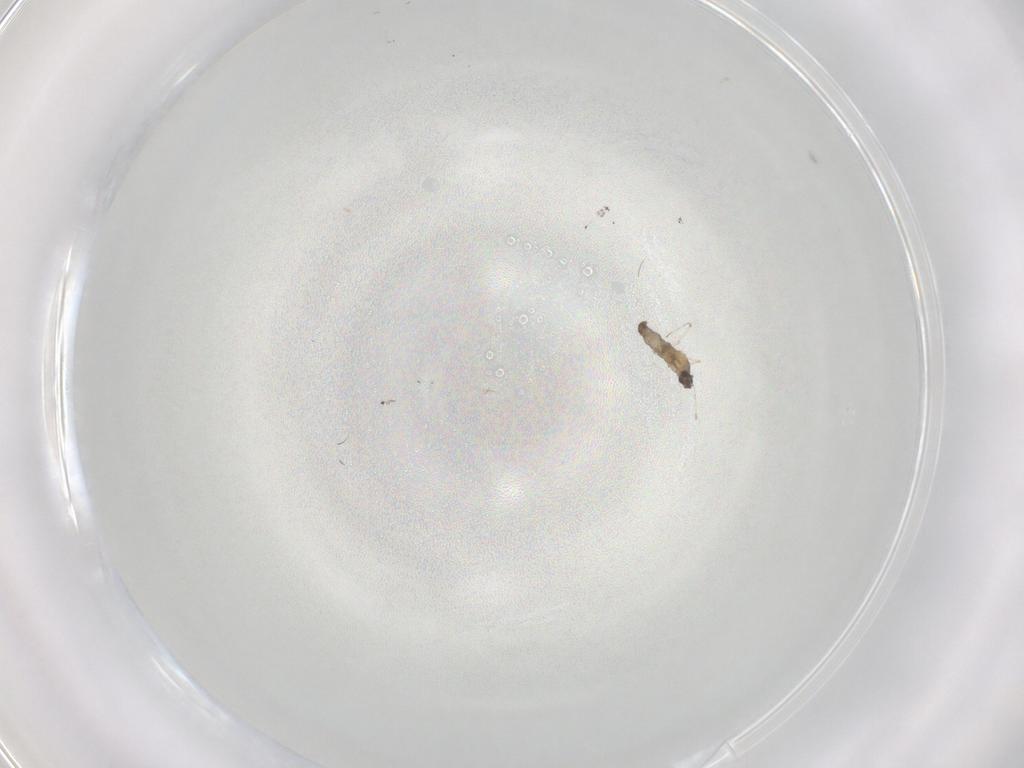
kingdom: Animalia
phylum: Arthropoda
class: Insecta
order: Diptera
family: Cecidomyiidae
